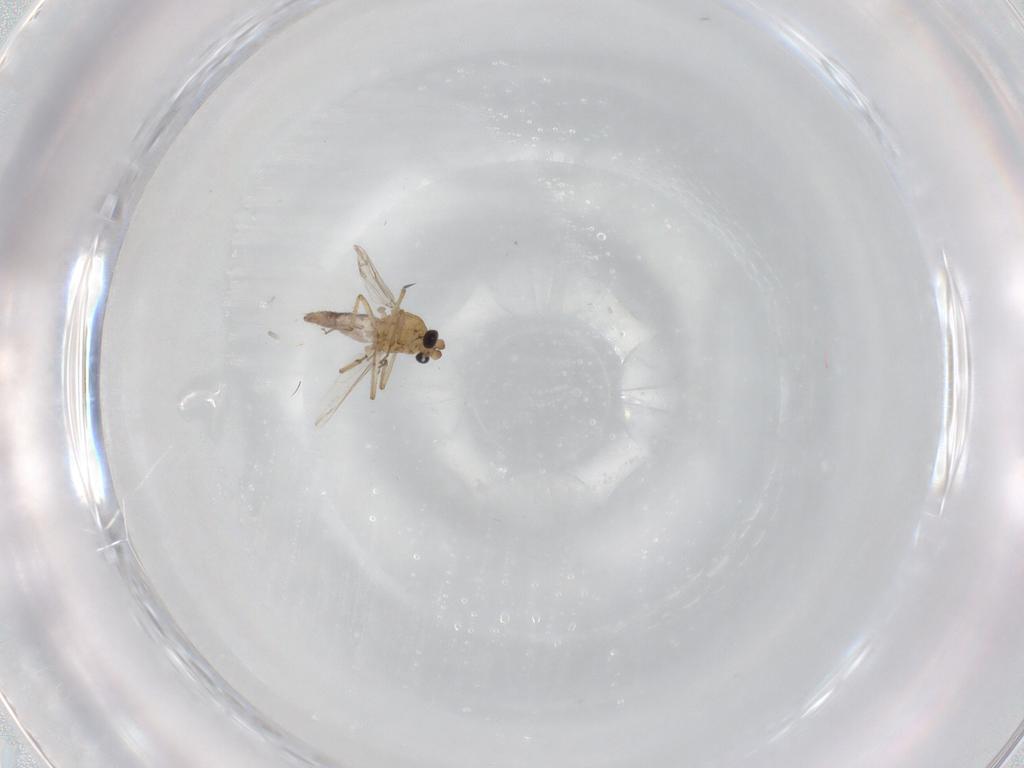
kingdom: Animalia
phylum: Arthropoda
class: Insecta
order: Diptera
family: Ceratopogonidae
